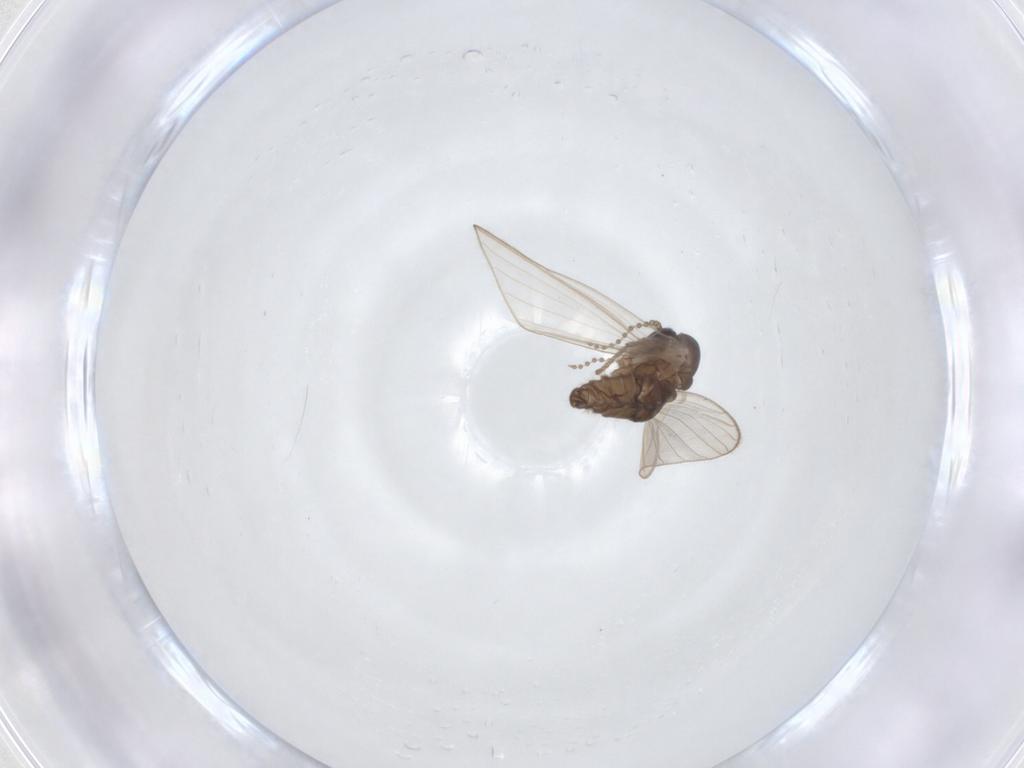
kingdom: Animalia
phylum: Arthropoda
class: Insecta
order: Diptera
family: Psychodidae
